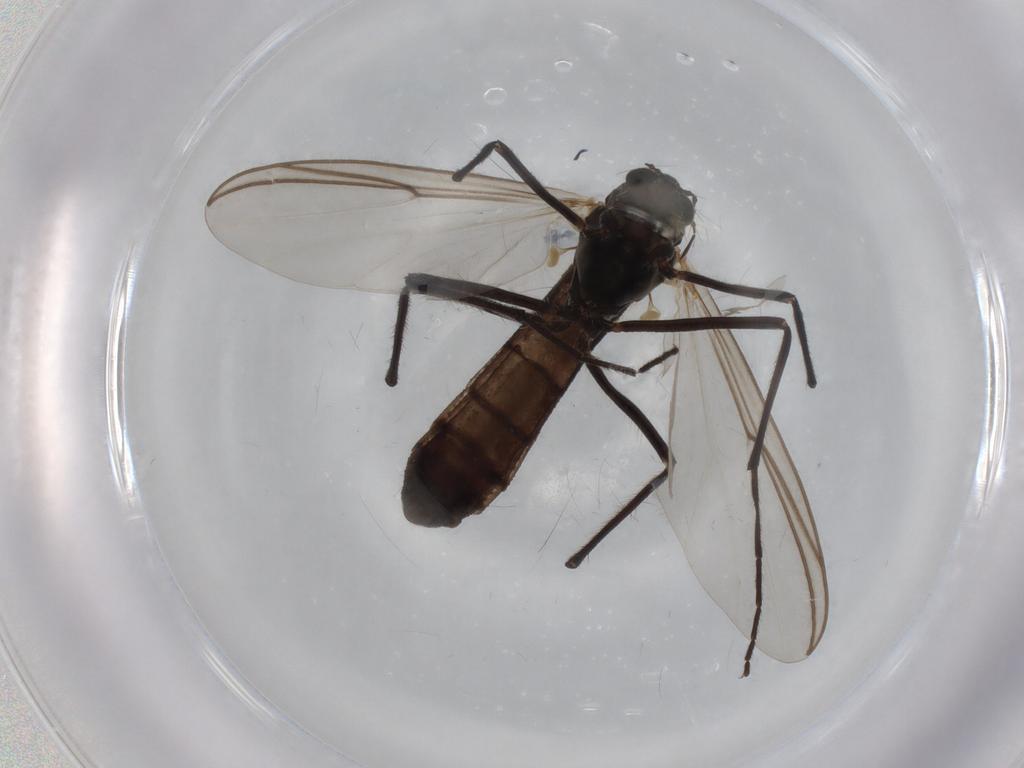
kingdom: Animalia
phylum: Arthropoda
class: Insecta
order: Diptera
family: Chironomidae
